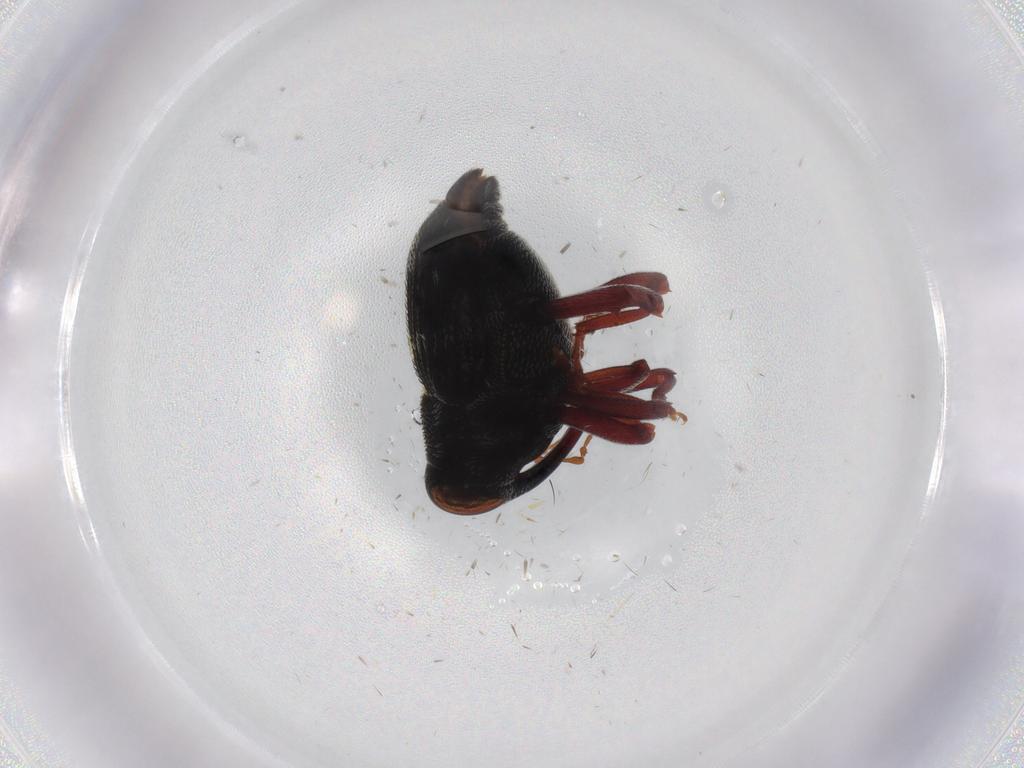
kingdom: Animalia
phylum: Arthropoda
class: Insecta
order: Coleoptera
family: Curculionidae
